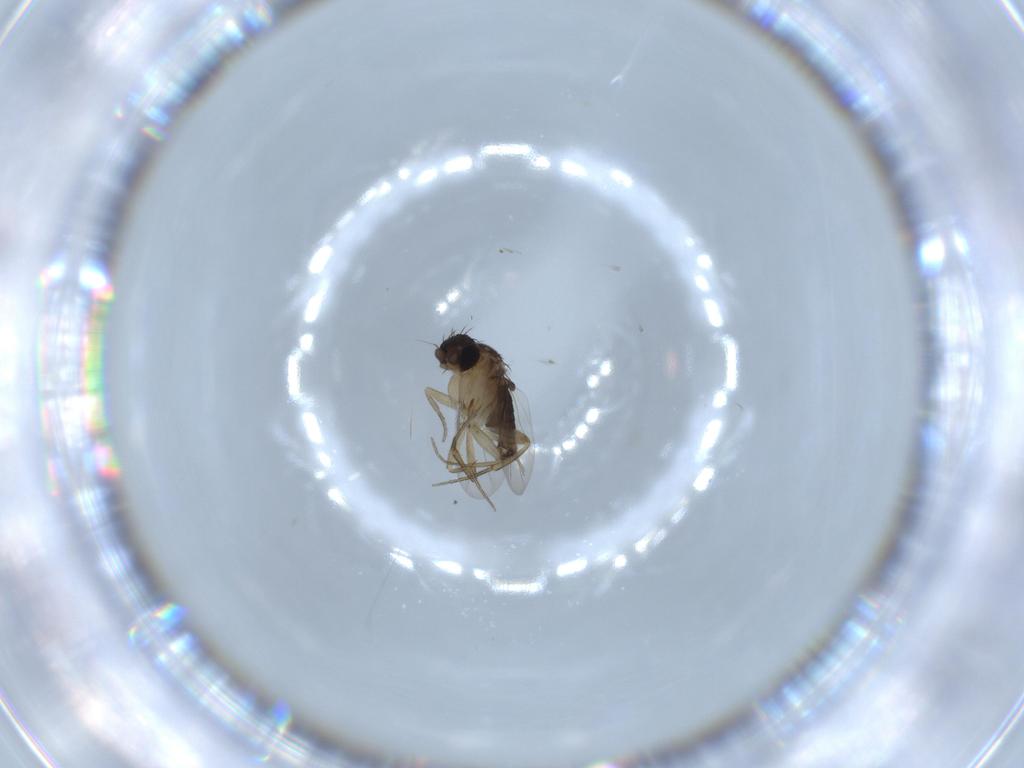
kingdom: Animalia
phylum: Arthropoda
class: Insecta
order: Diptera
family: Phoridae
